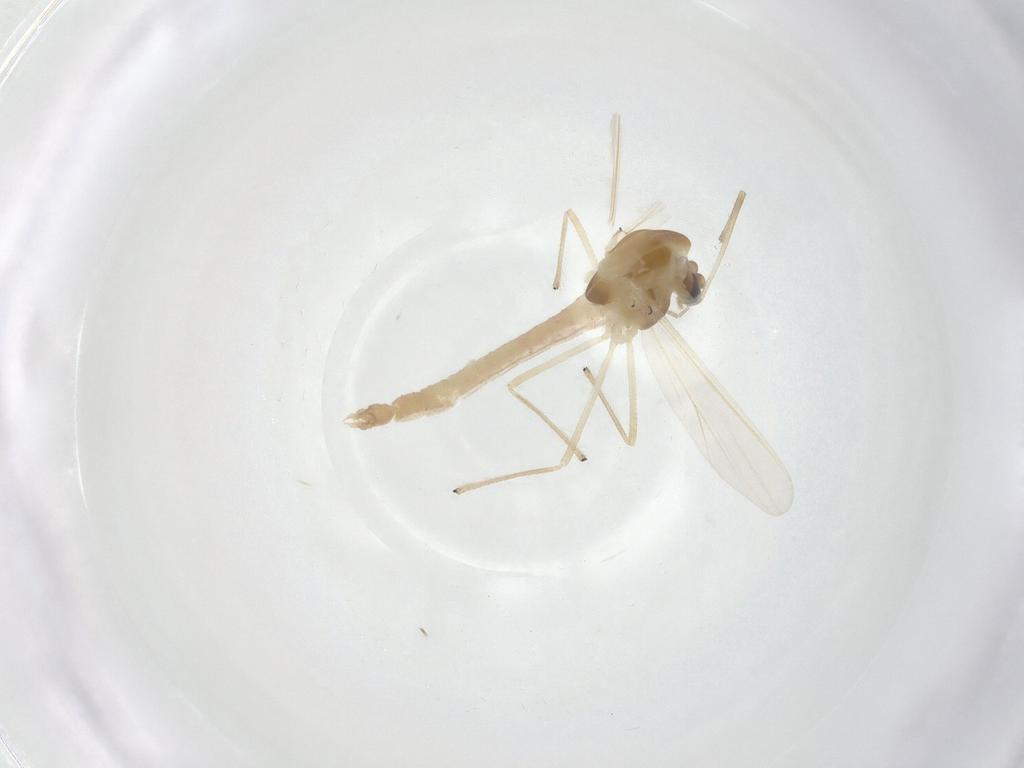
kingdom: Animalia
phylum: Arthropoda
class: Insecta
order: Diptera
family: Chironomidae
